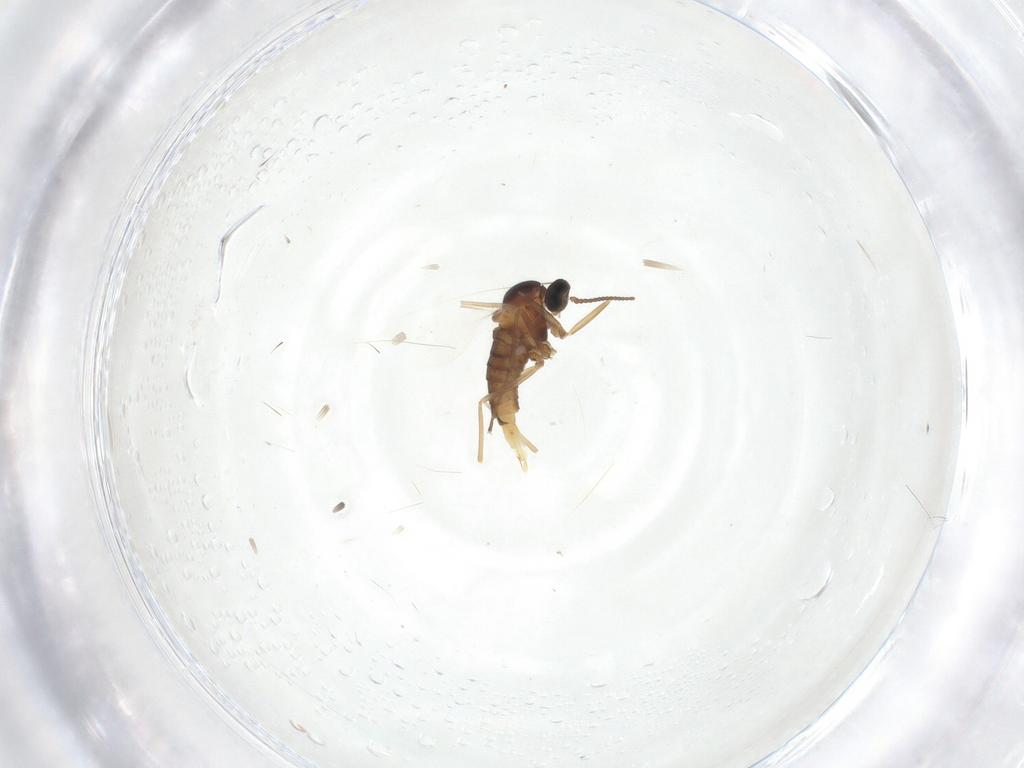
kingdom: Animalia
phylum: Arthropoda
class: Insecta
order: Diptera
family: Cecidomyiidae
